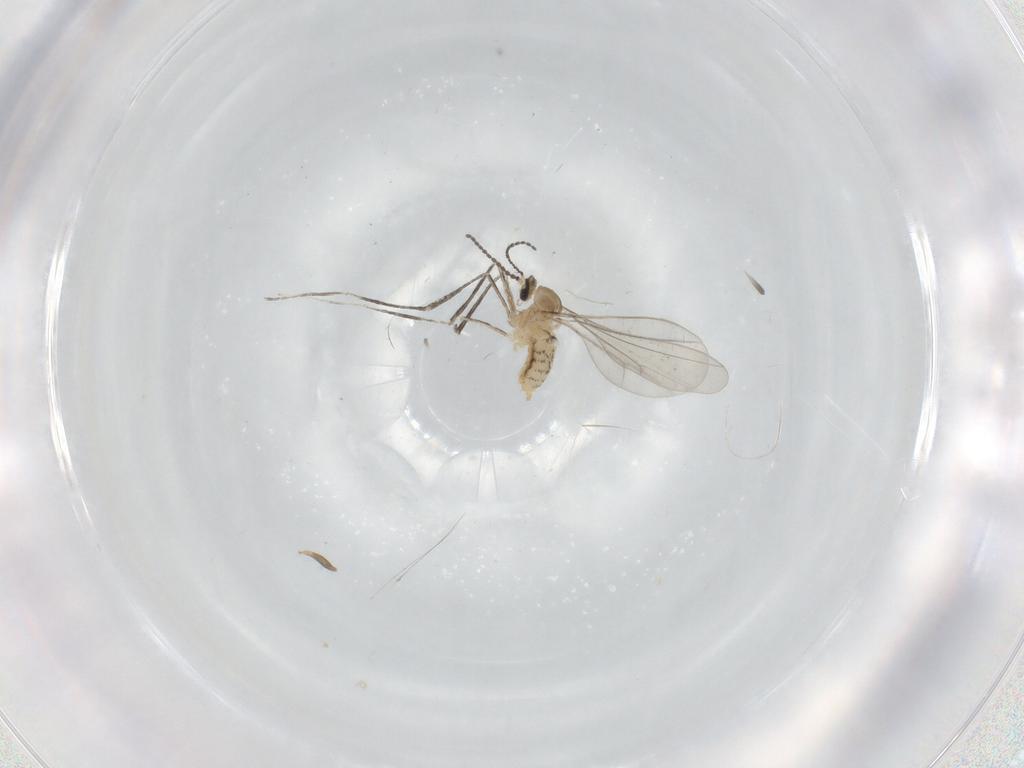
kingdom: Animalia
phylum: Arthropoda
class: Insecta
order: Diptera
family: Cecidomyiidae
